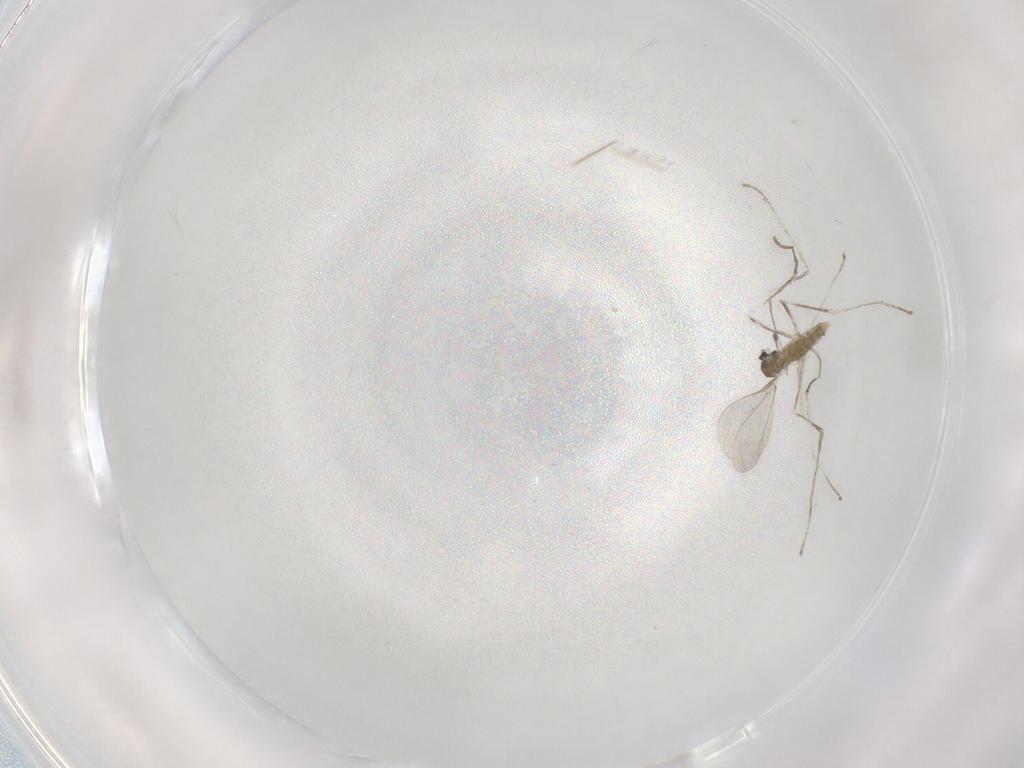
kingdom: Animalia
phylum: Arthropoda
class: Insecta
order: Diptera
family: Cecidomyiidae
